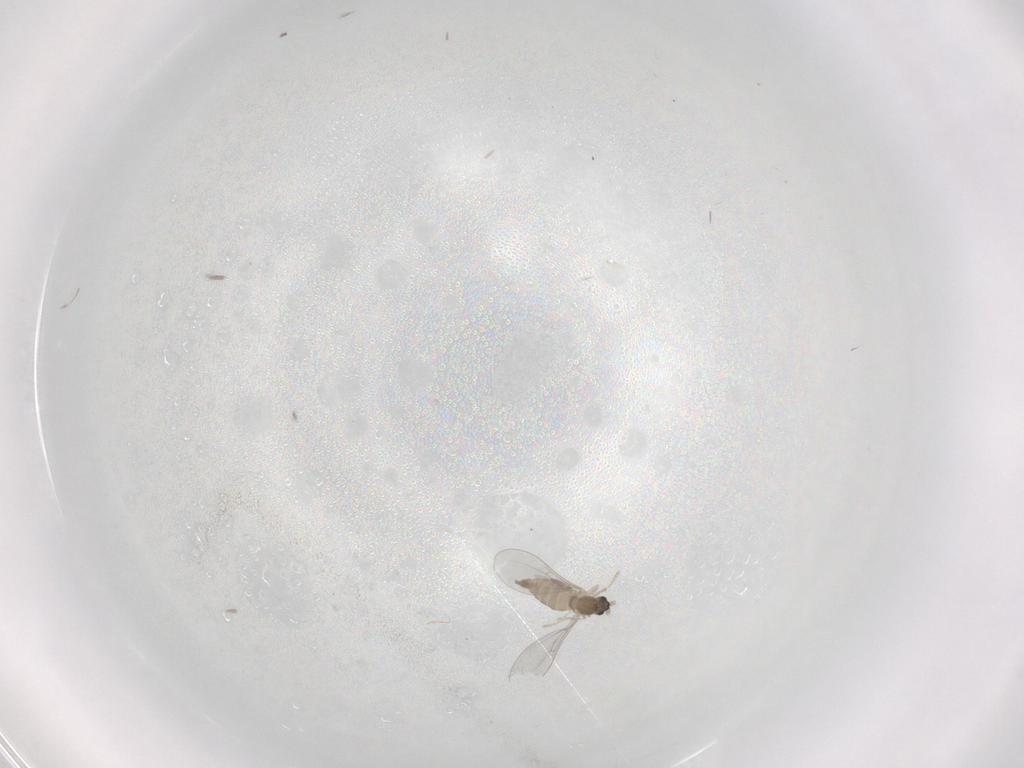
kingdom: Animalia
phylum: Arthropoda
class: Insecta
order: Diptera
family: Cecidomyiidae
